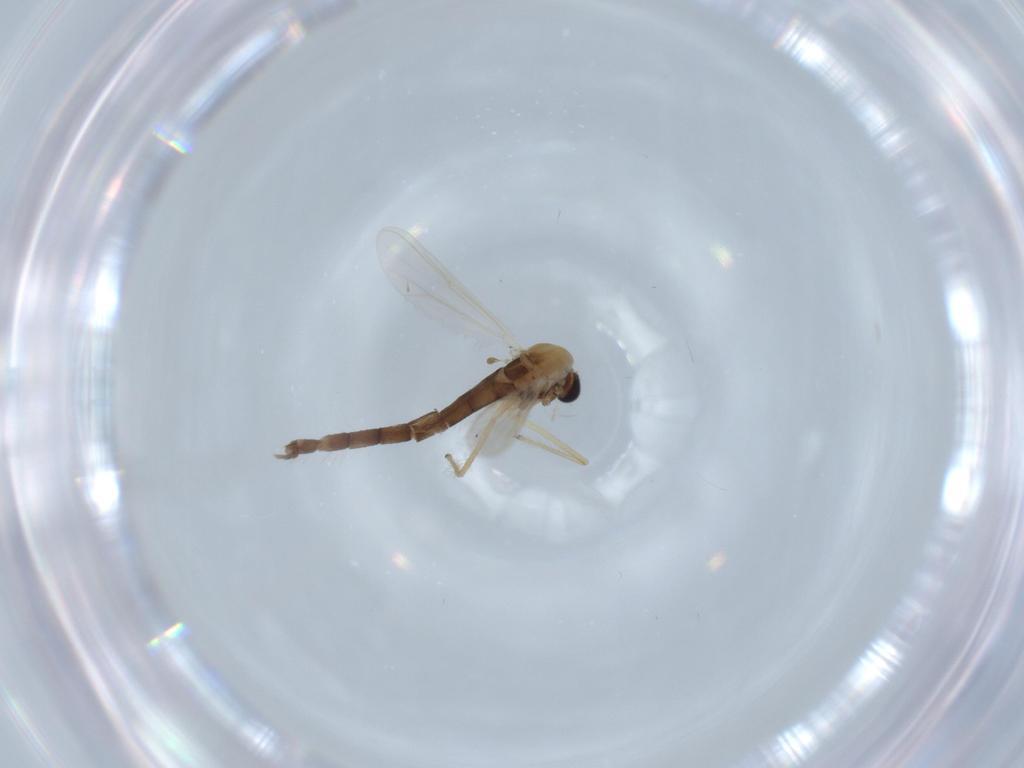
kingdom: Animalia
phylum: Arthropoda
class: Insecta
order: Diptera
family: Chironomidae
